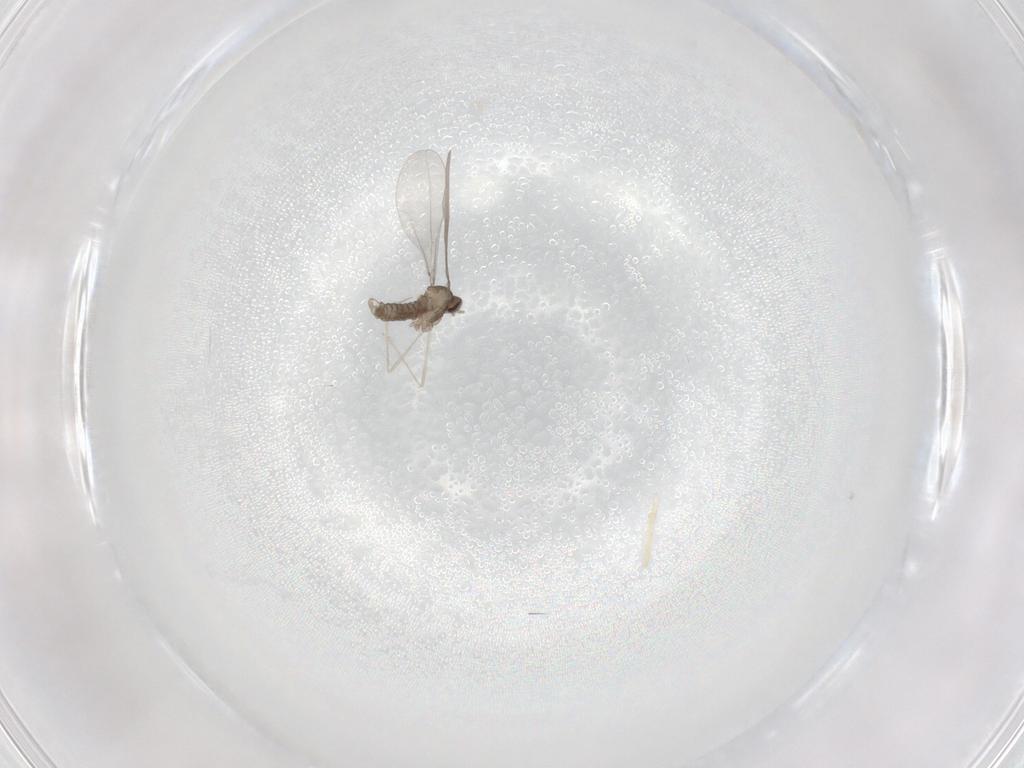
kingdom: Animalia
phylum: Arthropoda
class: Insecta
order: Diptera
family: Cecidomyiidae
